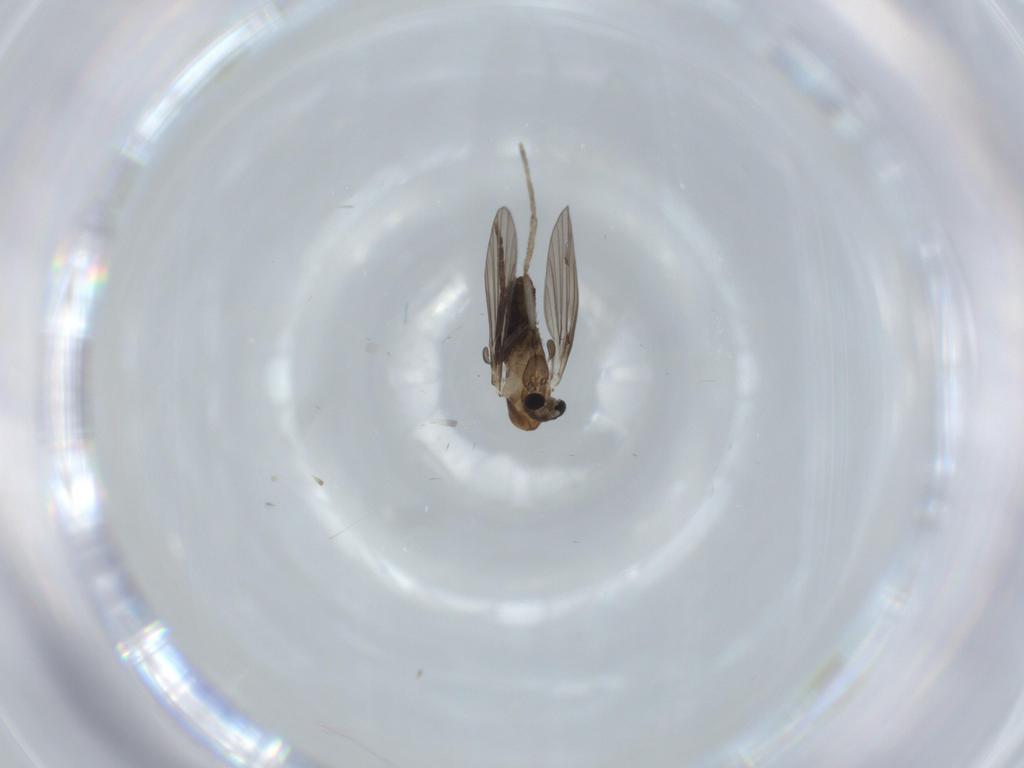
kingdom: Animalia
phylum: Arthropoda
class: Insecta
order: Diptera
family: Psychodidae
